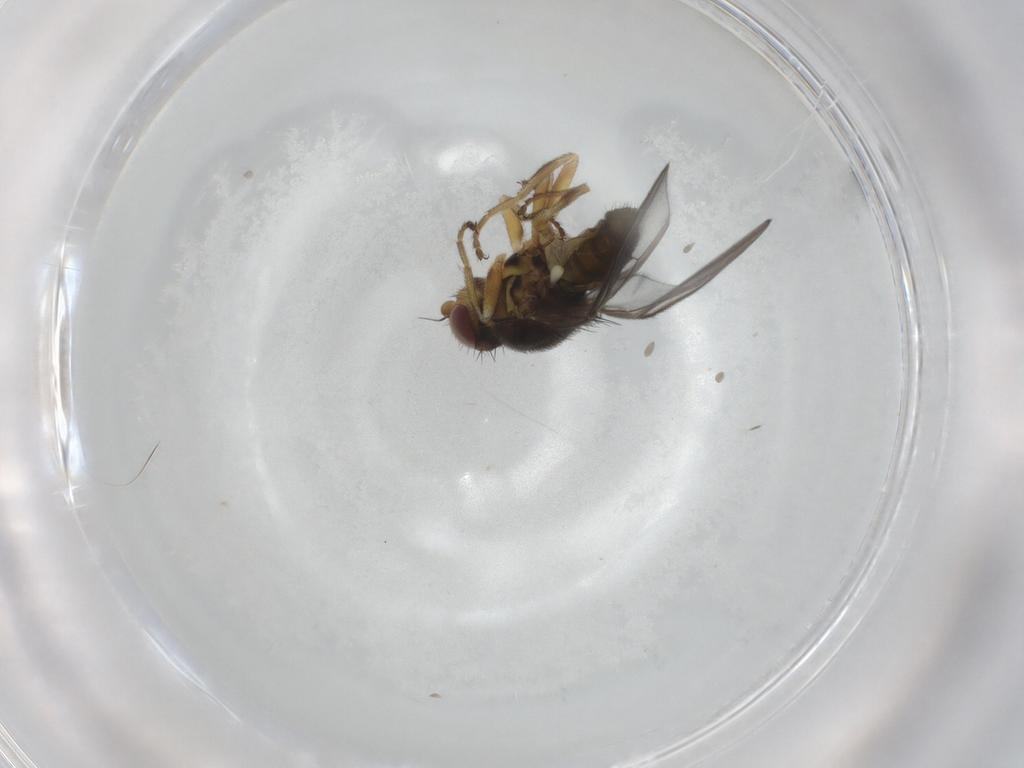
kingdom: Animalia
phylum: Arthropoda
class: Insecta
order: Diptera
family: Chloropidae
